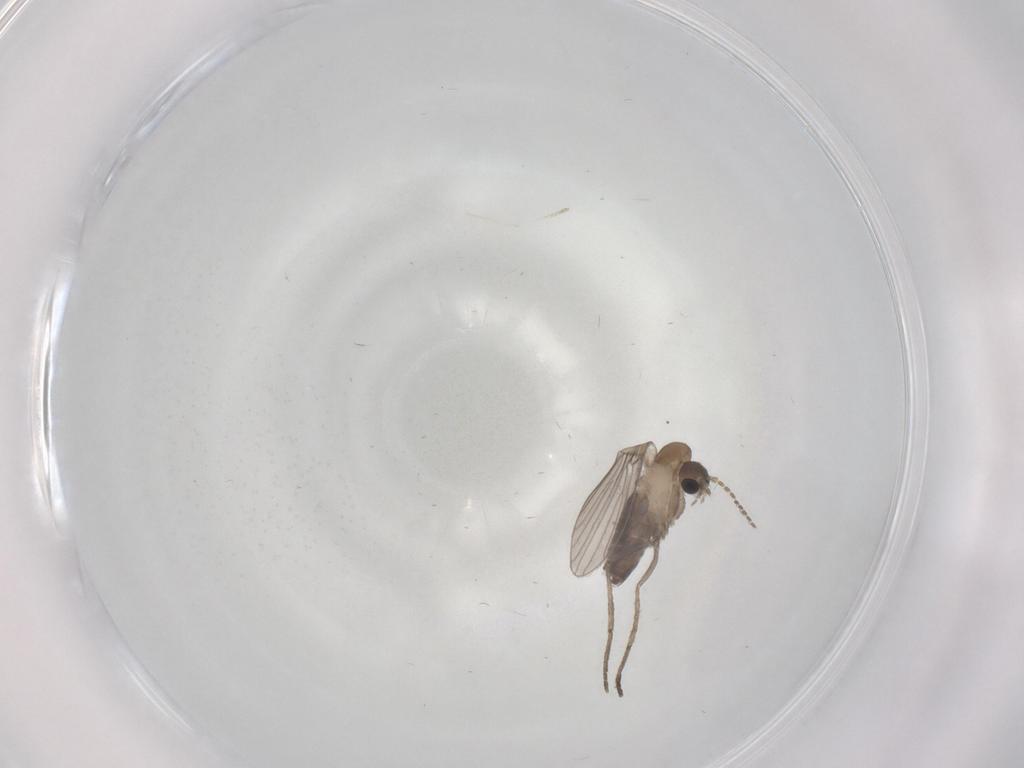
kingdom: Animalia
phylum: Arthropoda
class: Insecta
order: Diptera
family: Psychodidae
